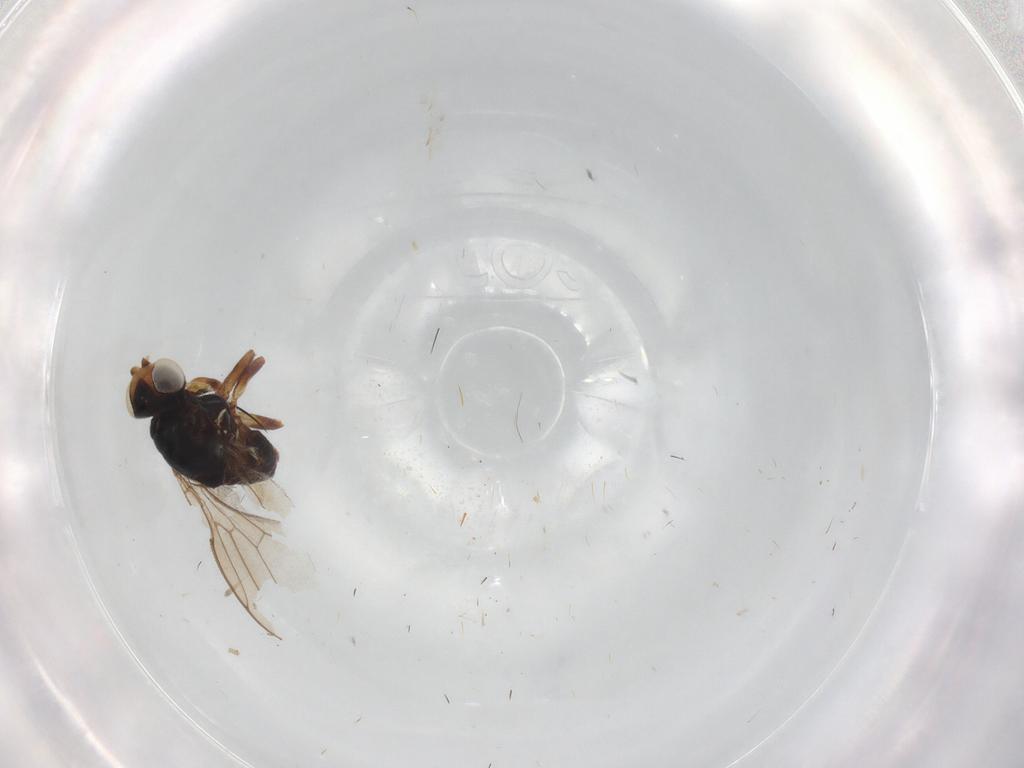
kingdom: Animalia
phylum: Arthropoda
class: Insecta
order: Diptera
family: Chloropidae
